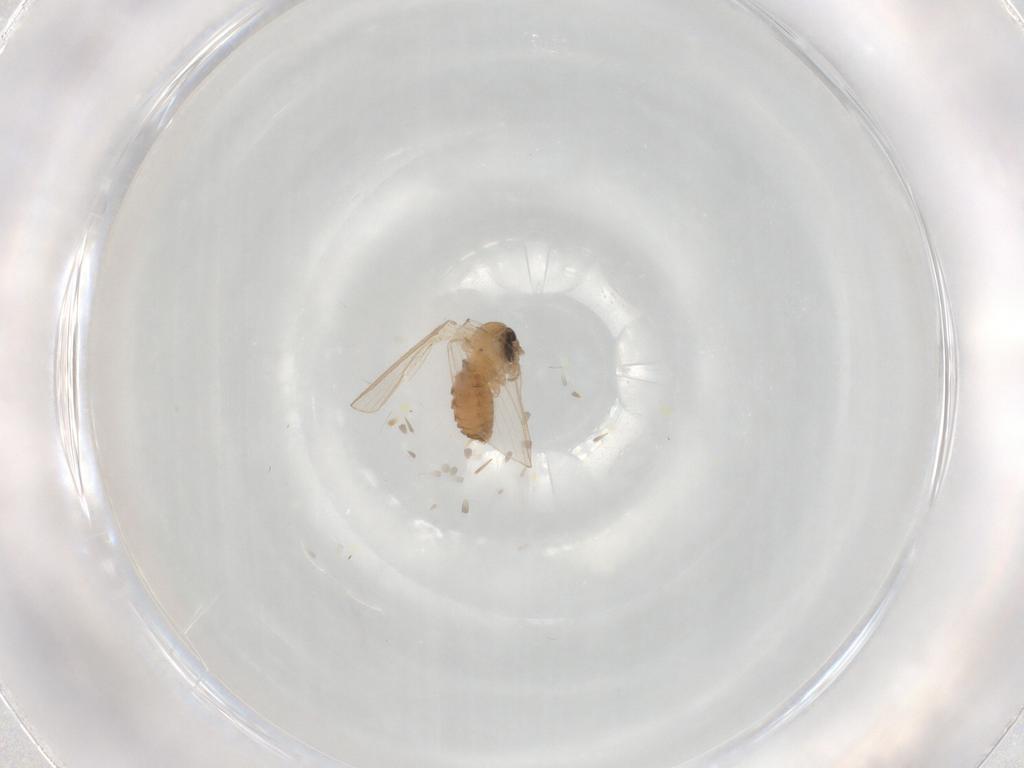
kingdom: Animalia
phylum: Arthropoda
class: Insecta
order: Diptera
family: Psychodidae
